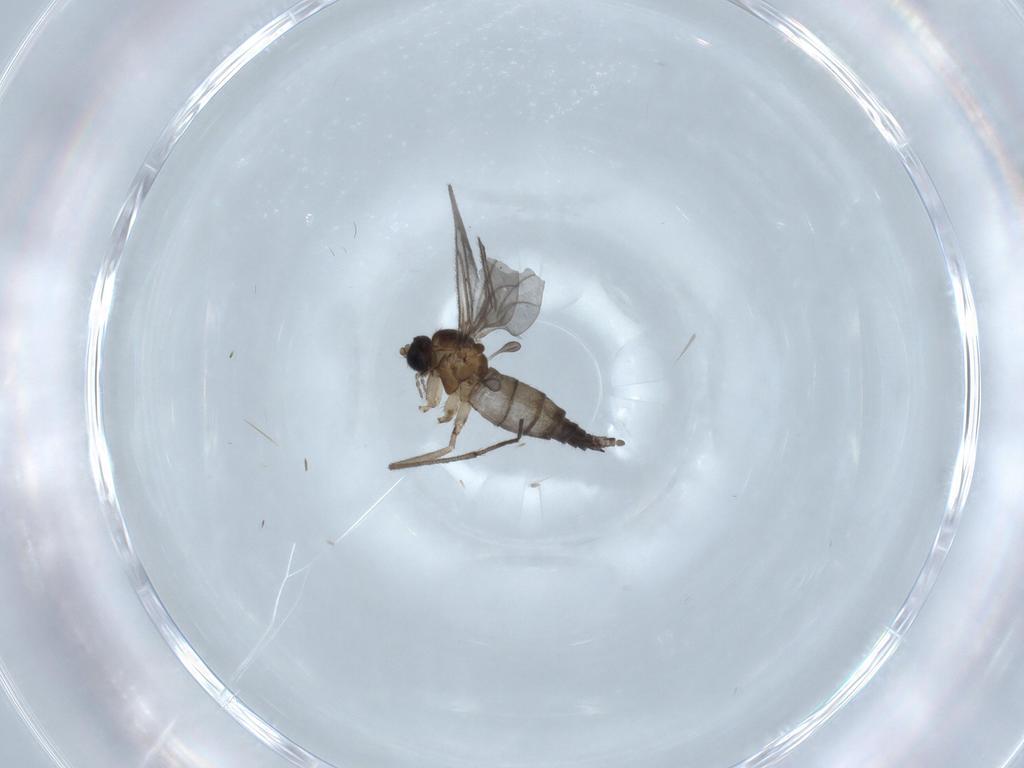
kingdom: Animalia
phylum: Arthropoda
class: Insecta
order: Diptera
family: Sciaridae
